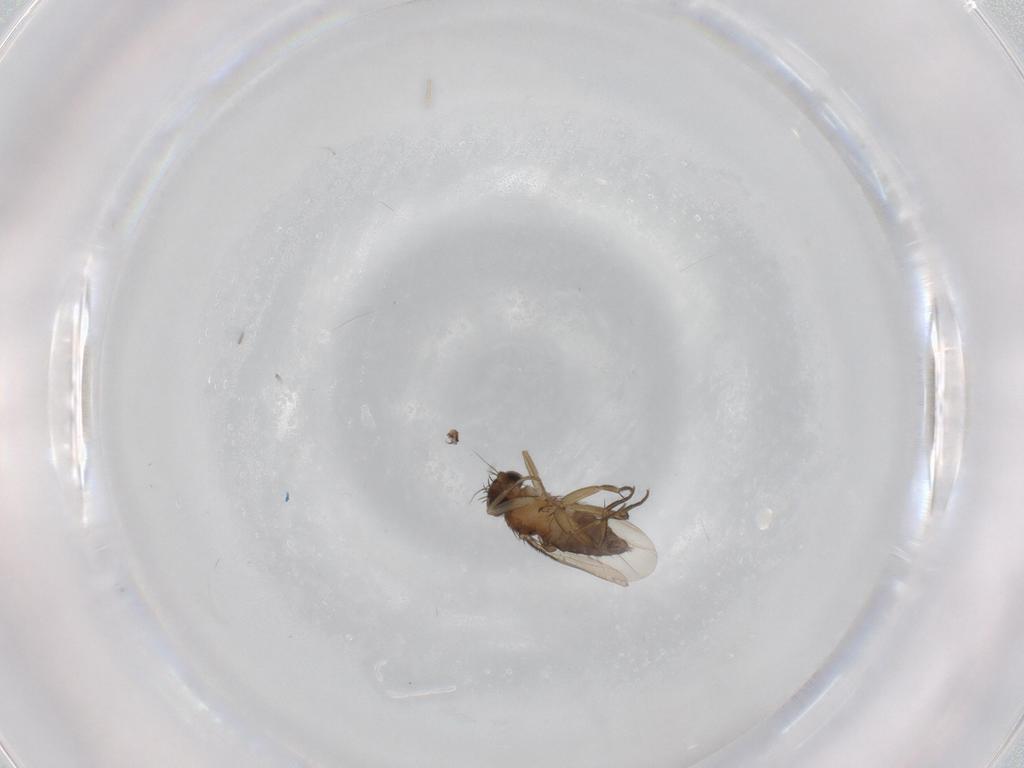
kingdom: Animalia
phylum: Arthropoda
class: Insecta
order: Diptera
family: Phoridae
